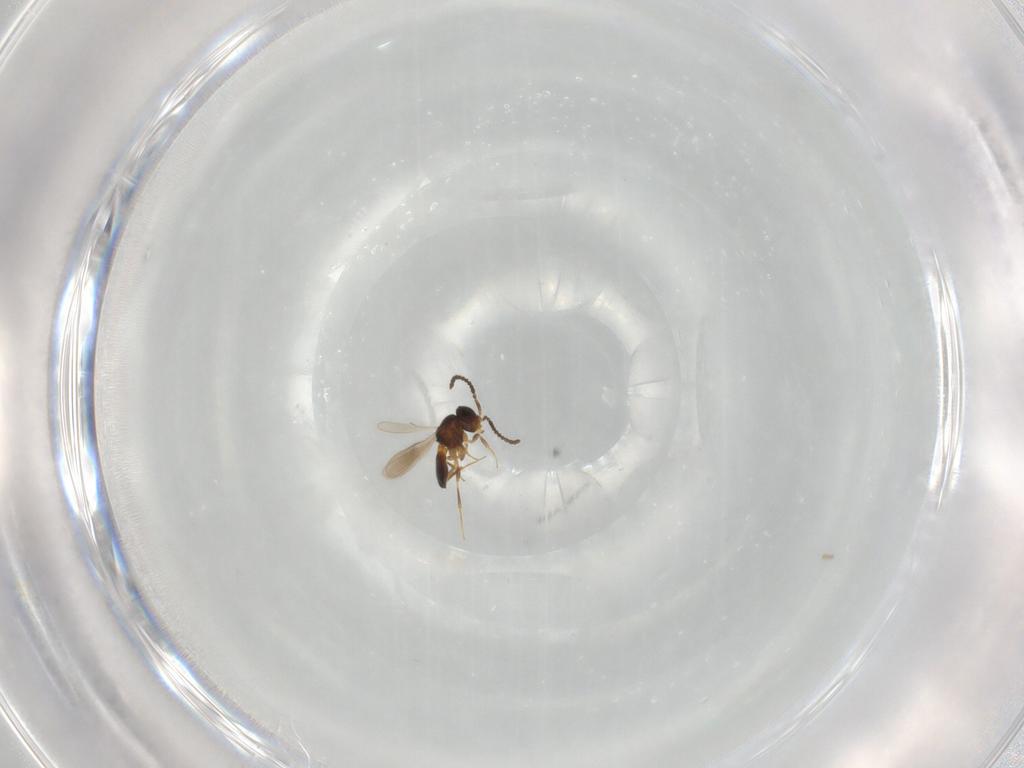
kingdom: Animalia
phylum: Arthropoda
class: Insecta
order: Hymenoptera
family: Scelionidae
